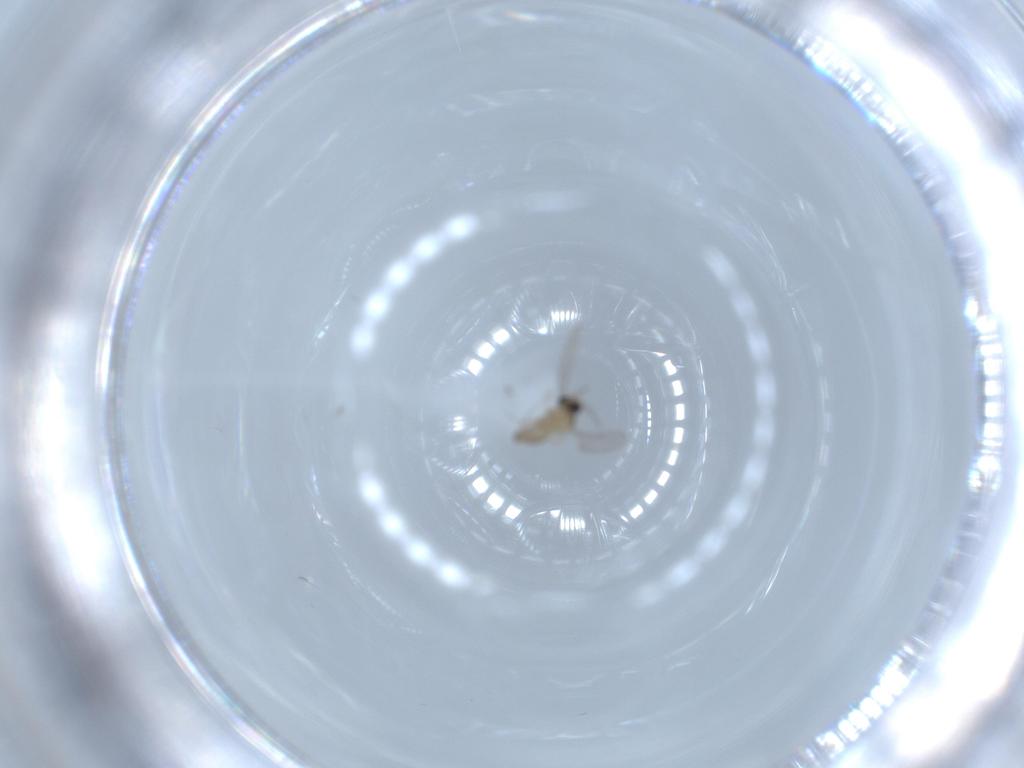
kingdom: Animalia
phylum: Arthropoda
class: Insecta
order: Diptera
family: Cecidomyiidae
